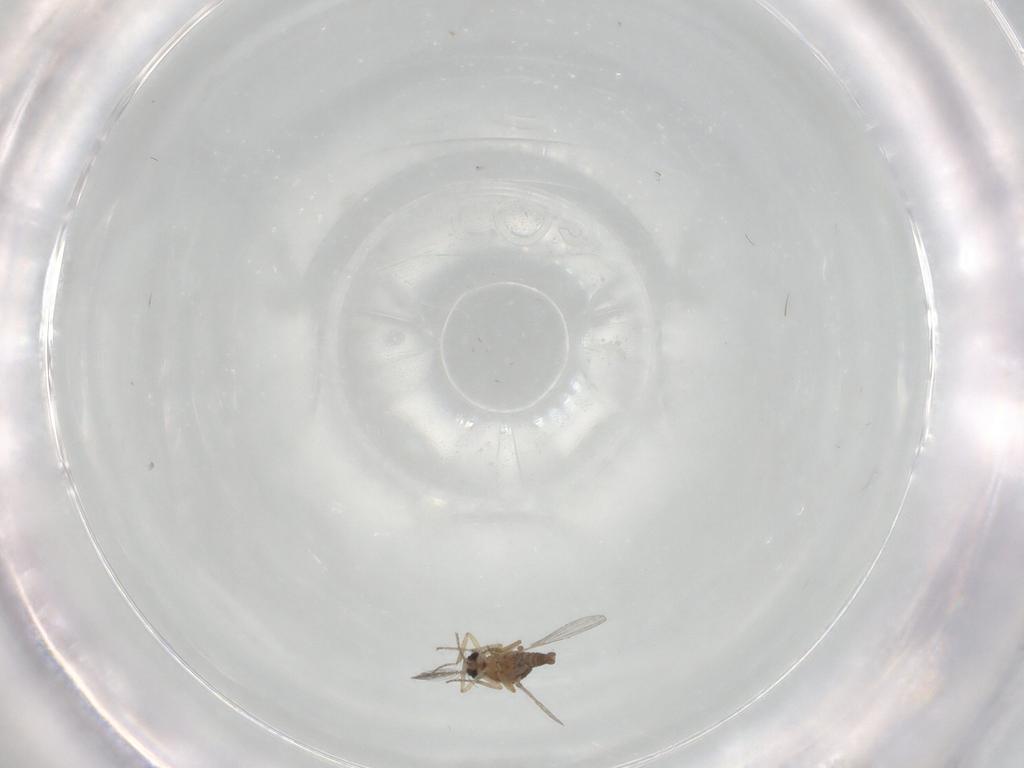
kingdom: Animalia
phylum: Arthropoda
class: Insecta
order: Diptera
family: Ceratopogonidae
